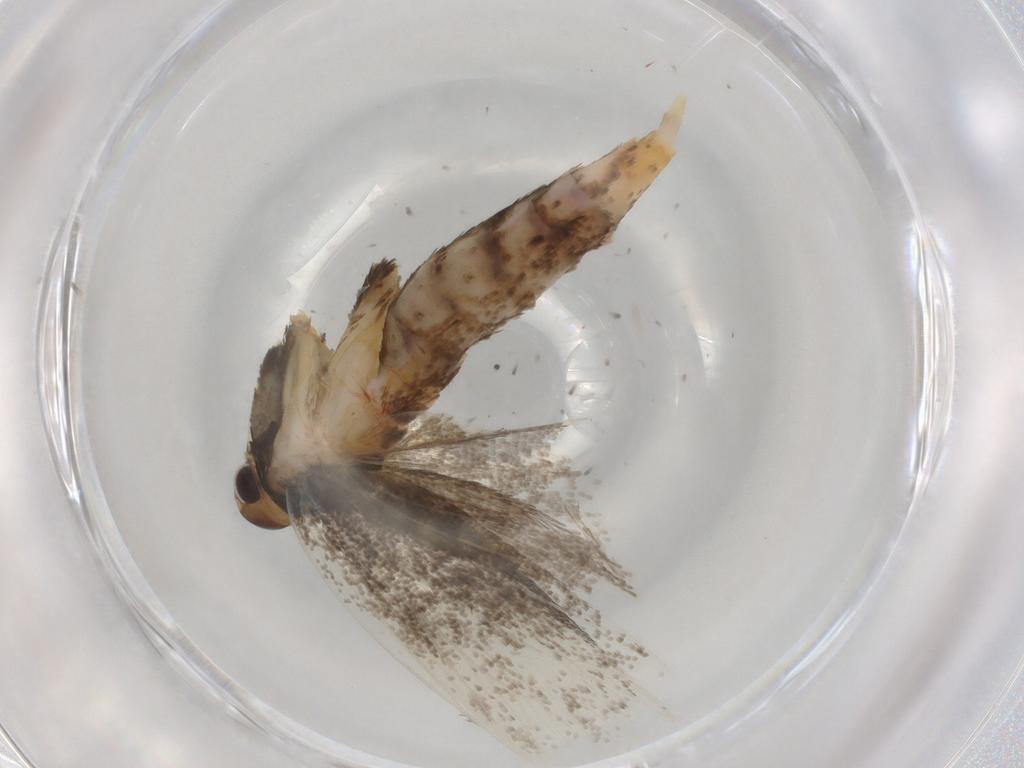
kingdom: Animalia
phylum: Arthropoda
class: Insecta
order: Lepidoptera
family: Lecithoceridae
